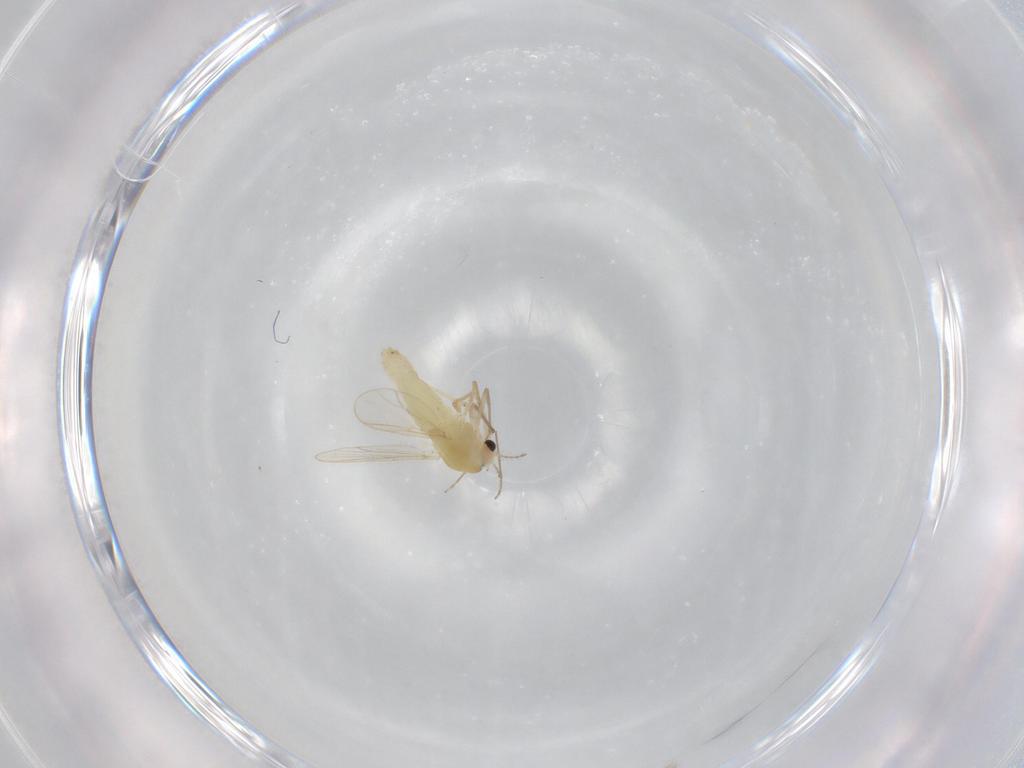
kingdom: Animalia
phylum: Arthropoda
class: Insecta
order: Diptera
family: Chironomidae
